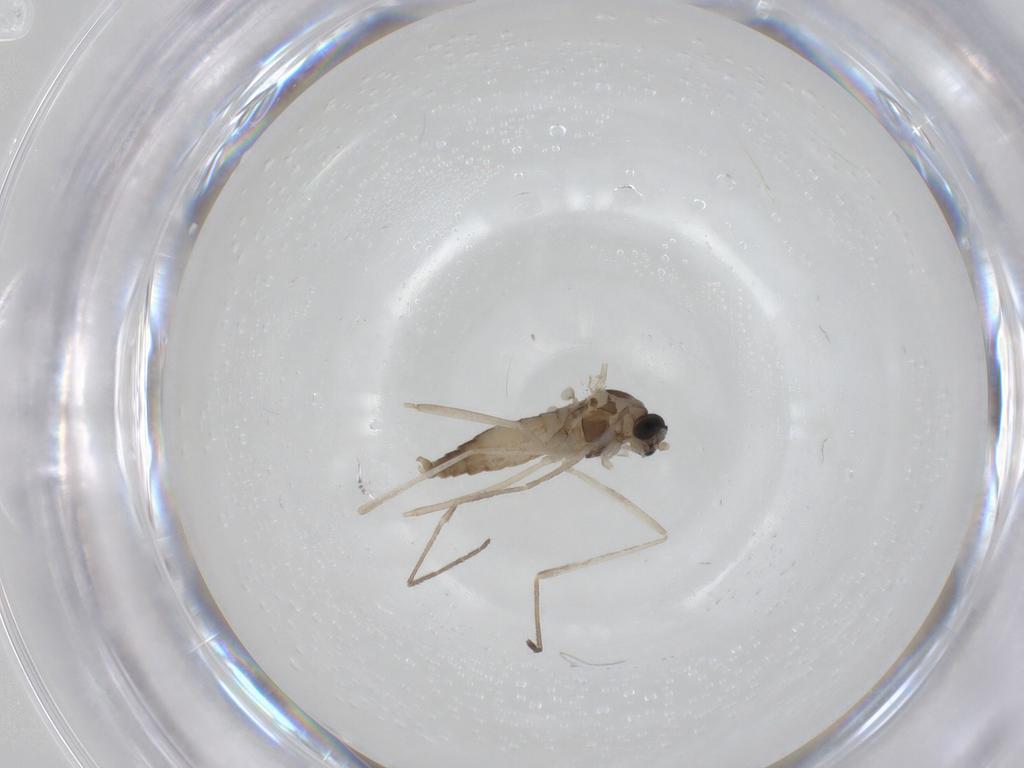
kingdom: Animalia
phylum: Arthropoda
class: Insecta
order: Diptera
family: Cecidomyiidae
